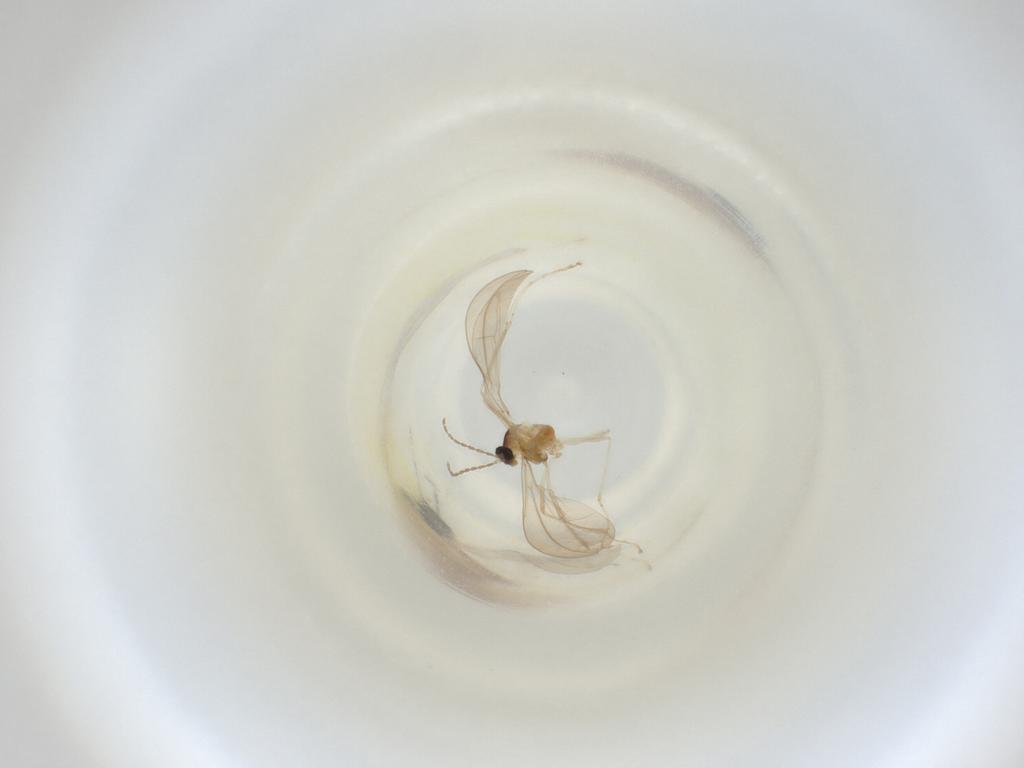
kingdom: Animalia
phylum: Arthropoda
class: Insecta
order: Diptera
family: Cecidomyiidae
